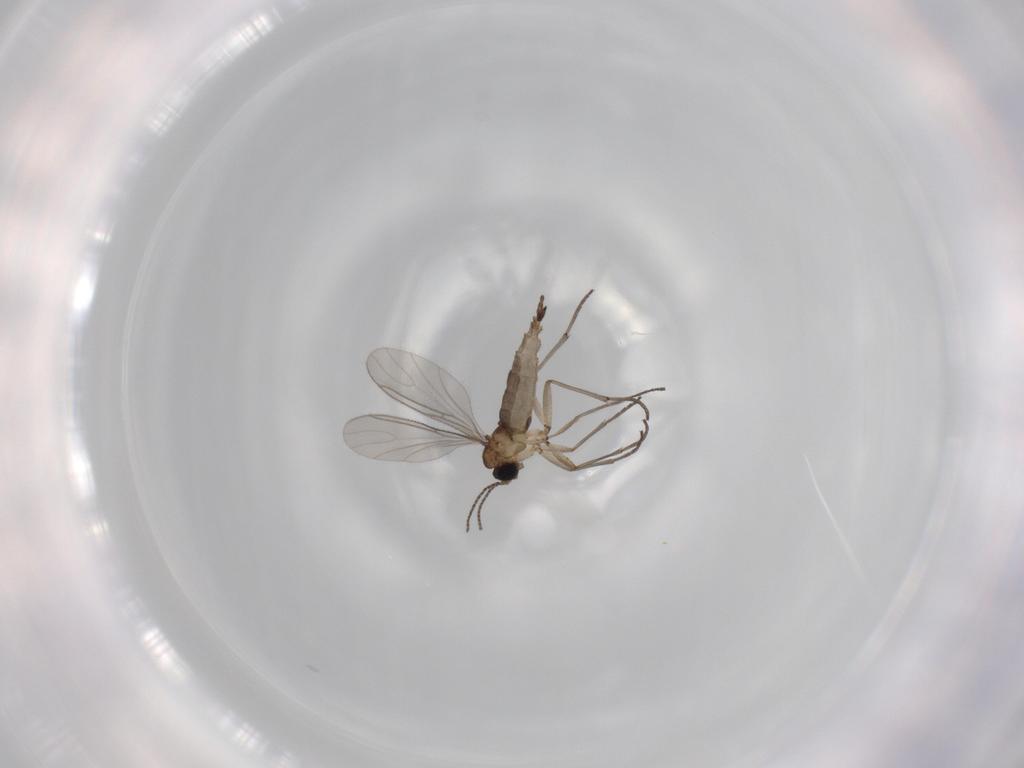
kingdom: Animalia
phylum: Arthropoda
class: Insecta
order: Diptera
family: Sciaridae
